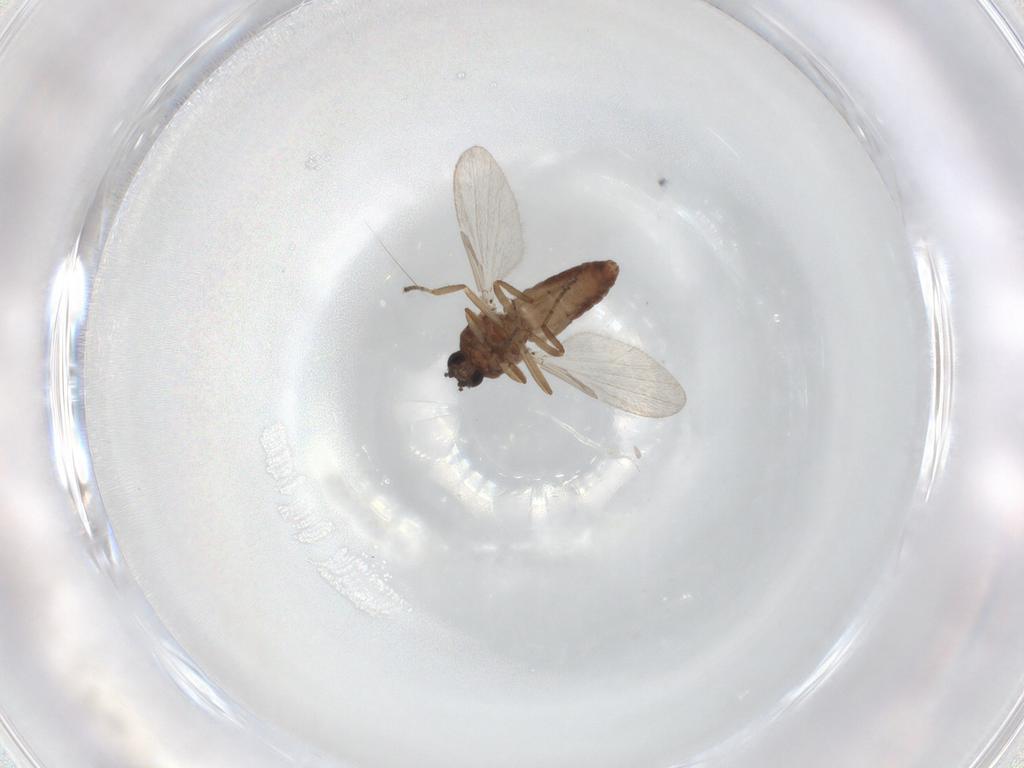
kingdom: Animalia
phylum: Arthropoda
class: Insecta
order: Diptera
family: Ceratopogonidae
